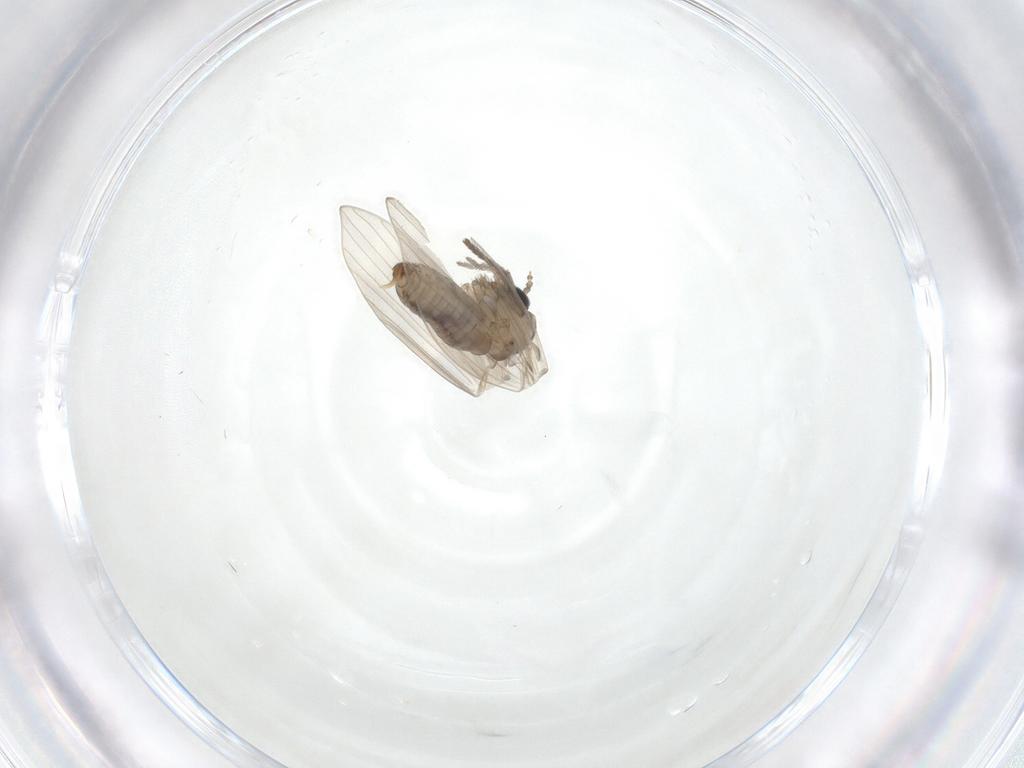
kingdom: Animalia
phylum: Arthropoda
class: Insecta
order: Diptera
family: Psychodidae
